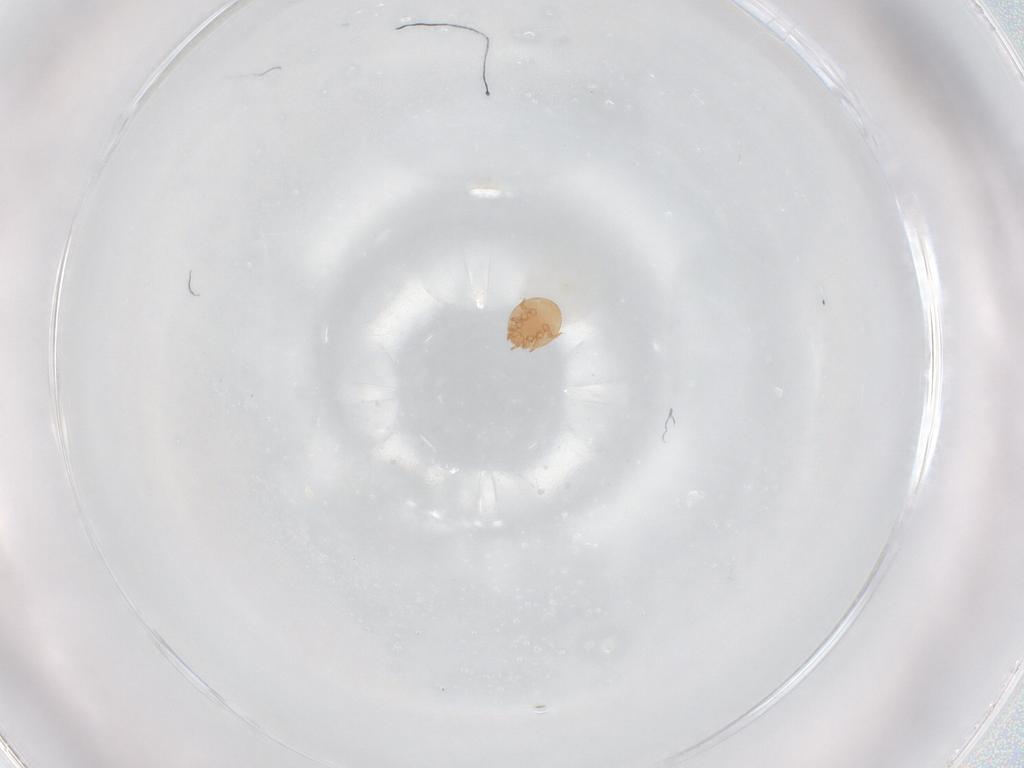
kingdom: Animalia
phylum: Arthropoda
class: Arachnida
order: Mesostigmata
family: Trematuridae
